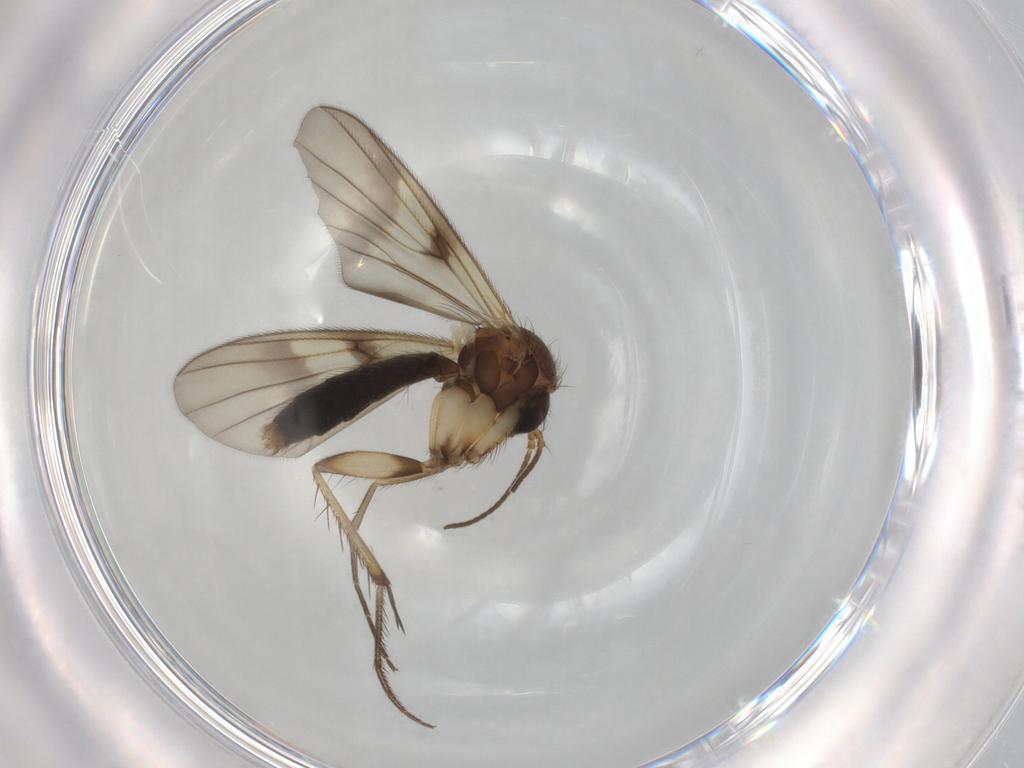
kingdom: Animalia
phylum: Arthropoda
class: Insecta
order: Diptera
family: Mycetophilidae
